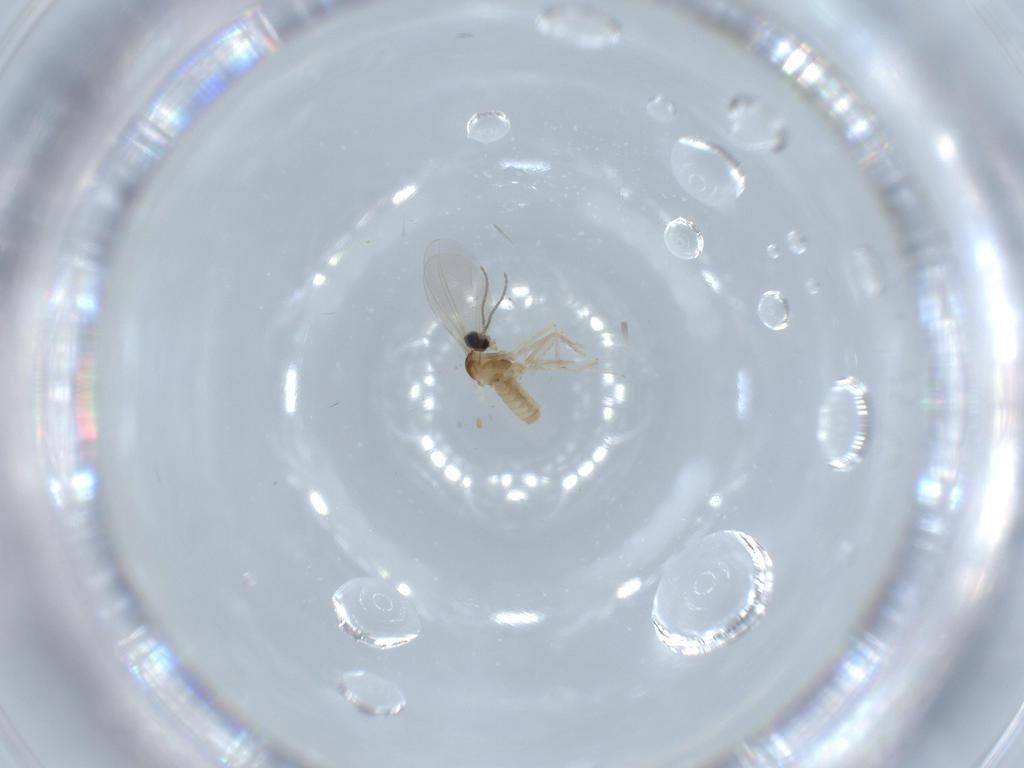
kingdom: Animalia
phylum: Arthropoda
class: Insecta
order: Diptera
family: Cecidomyiidae
